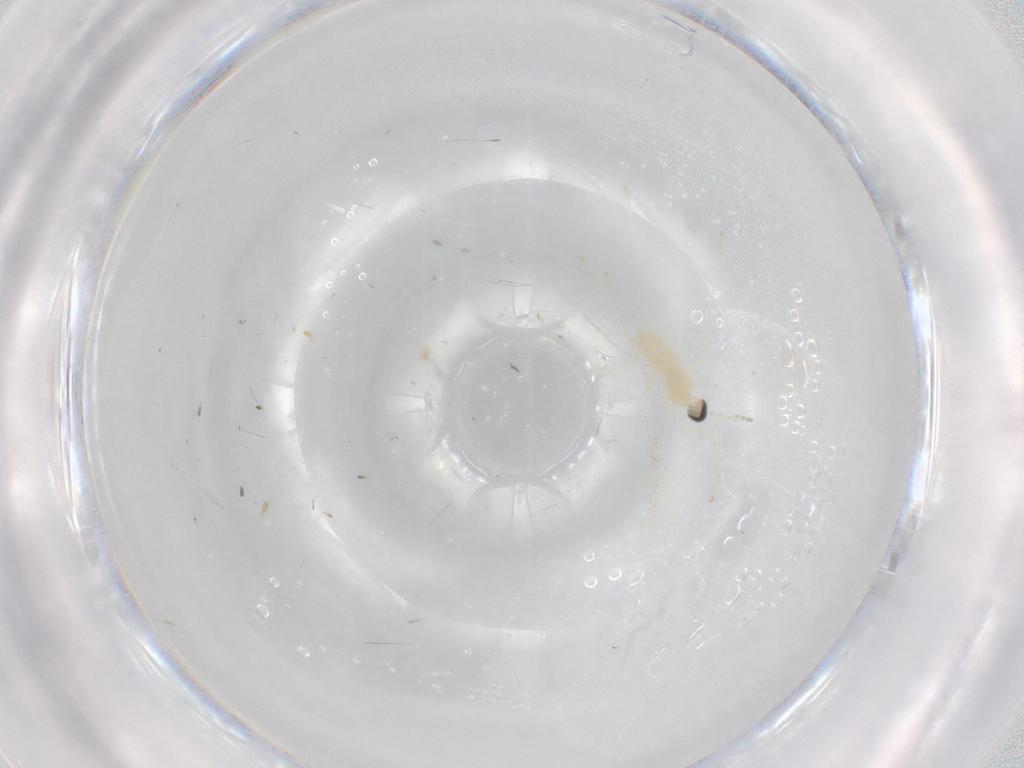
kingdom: Animalia
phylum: Arthropoda
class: Insecta
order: Diptera
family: Cecidomyiidae
